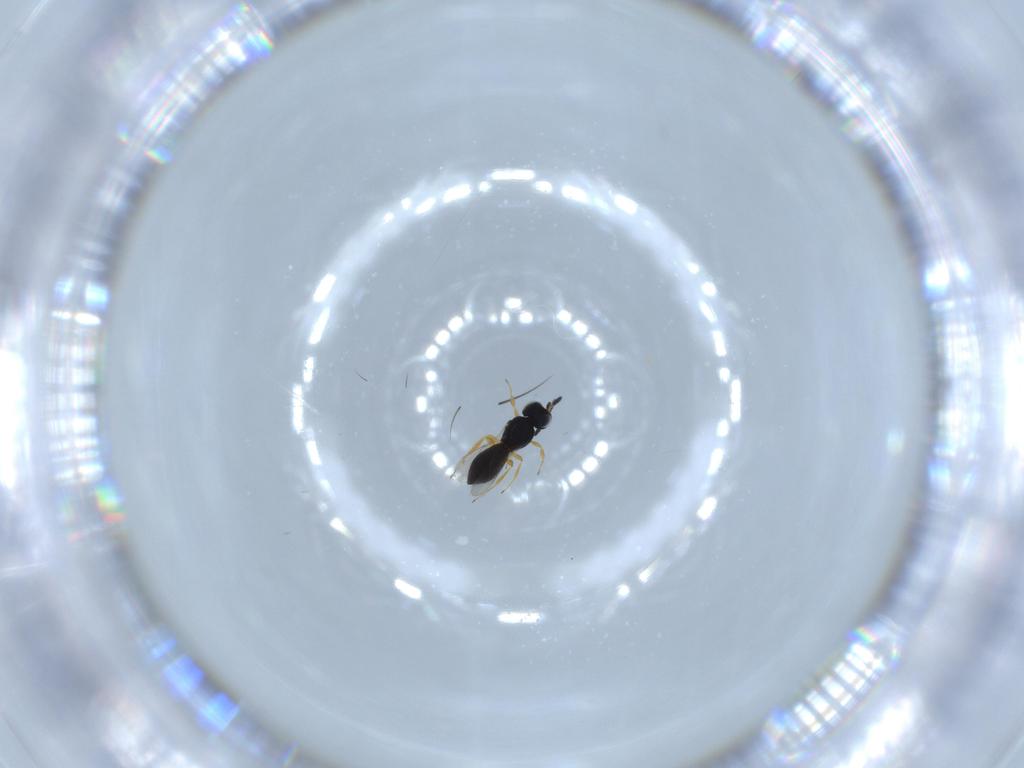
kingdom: Animalia
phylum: Arthropoda
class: Insecta
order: Hymenoptera
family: Scelionidae
